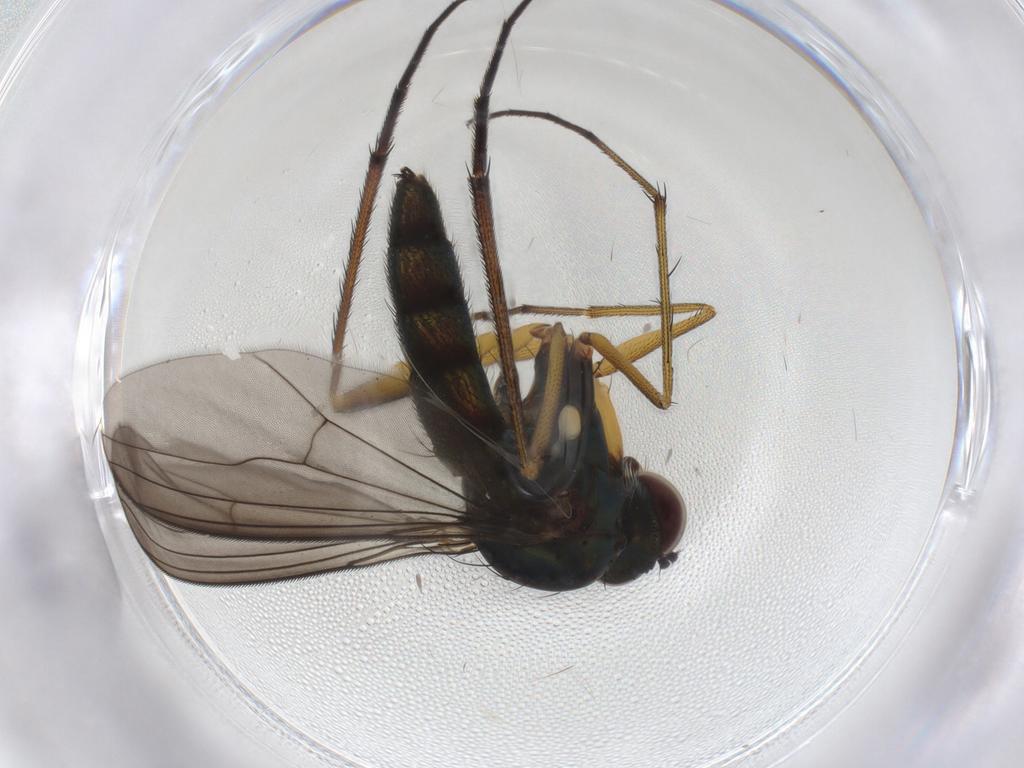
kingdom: Animalia
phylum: Arthropoda
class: Insecta
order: Diptera
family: Dolichopodidae
